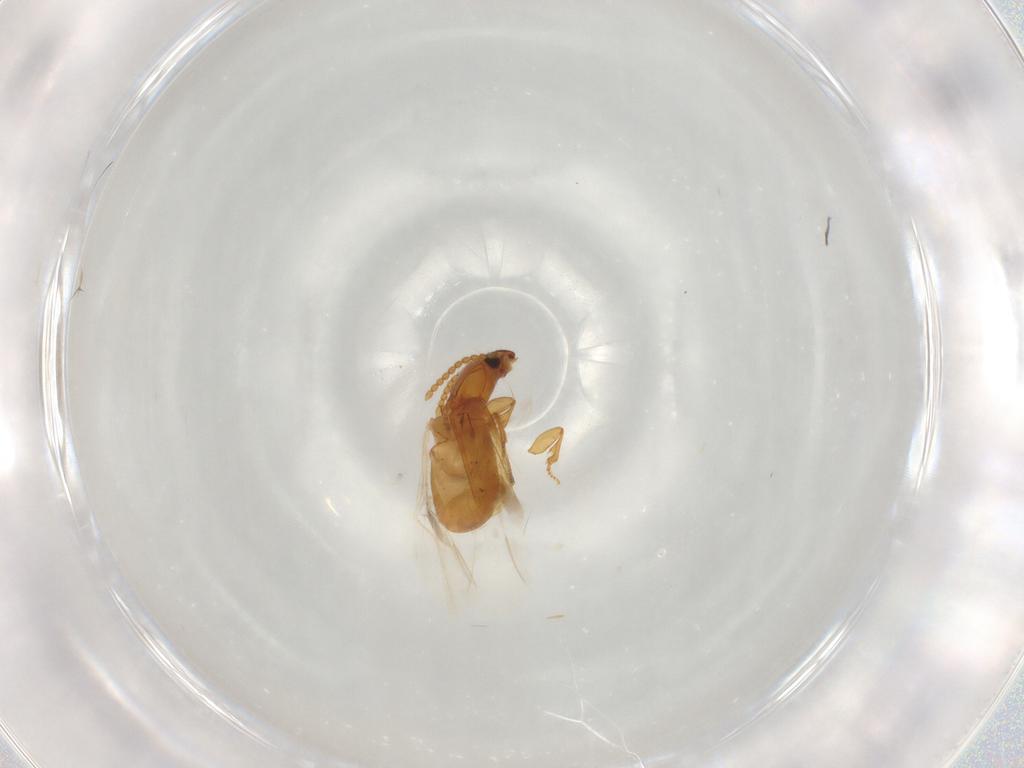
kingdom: Animalia
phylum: Arthropoda
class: Insecta
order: Coleoptera
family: Carabidae
